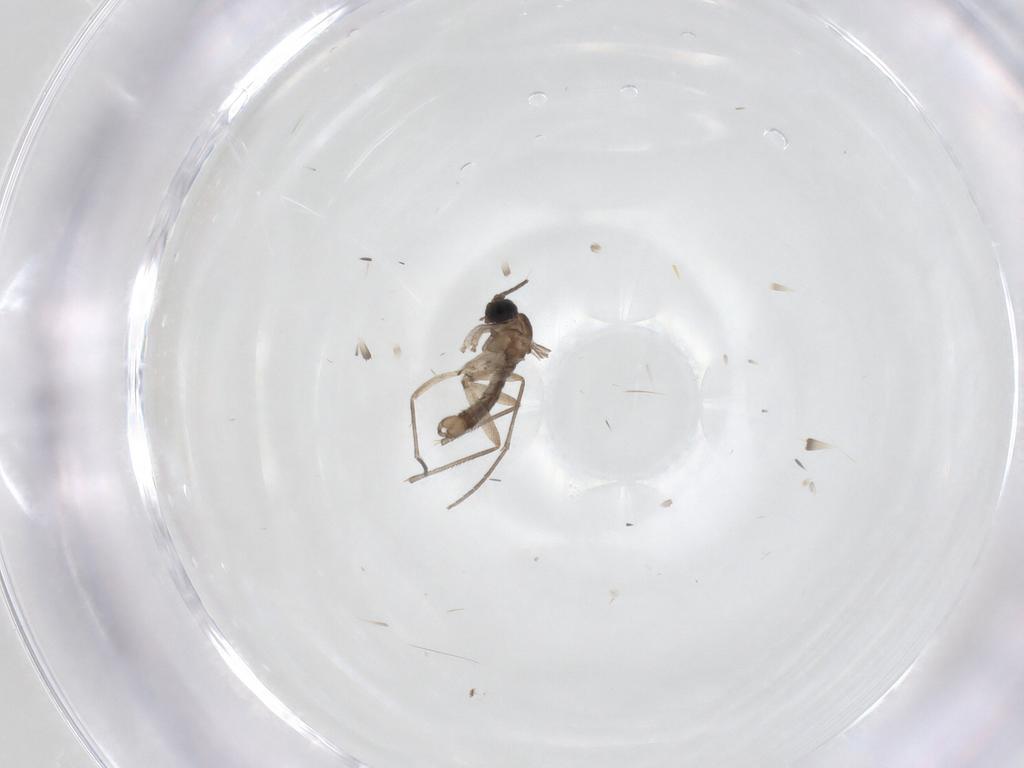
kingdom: Animalia
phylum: Arthropoda
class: Insecta
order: Diptera
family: Sciaridae
